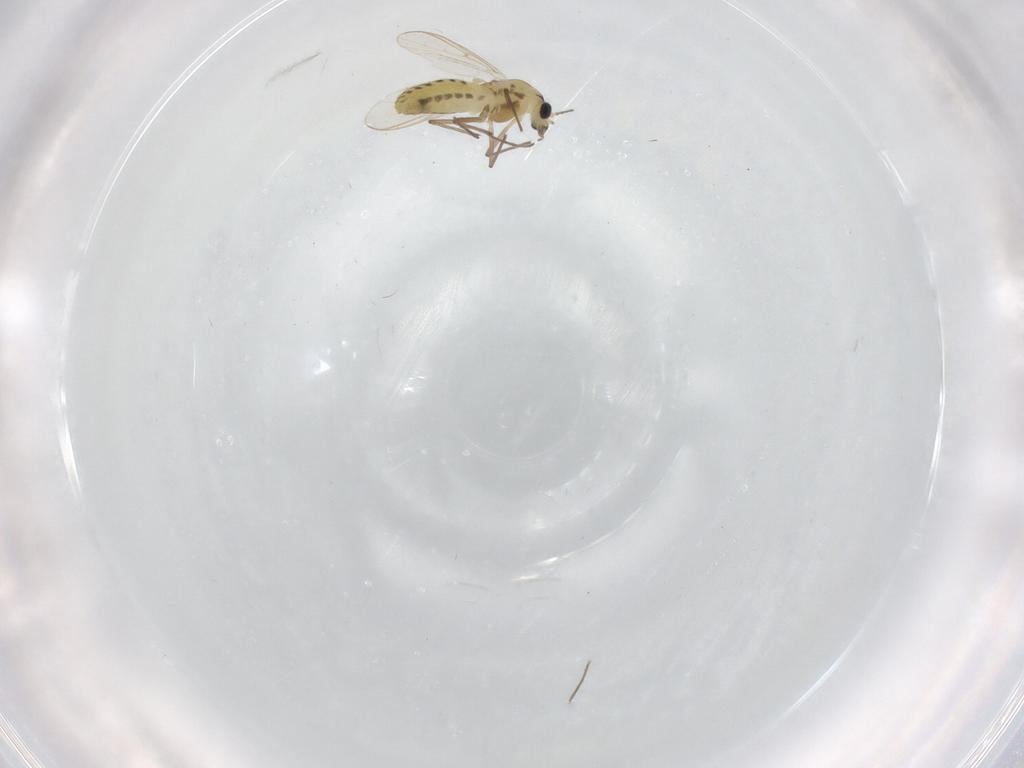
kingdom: Animalia
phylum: Arthropoda
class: Insecta
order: Diptera
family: Chironomidae
